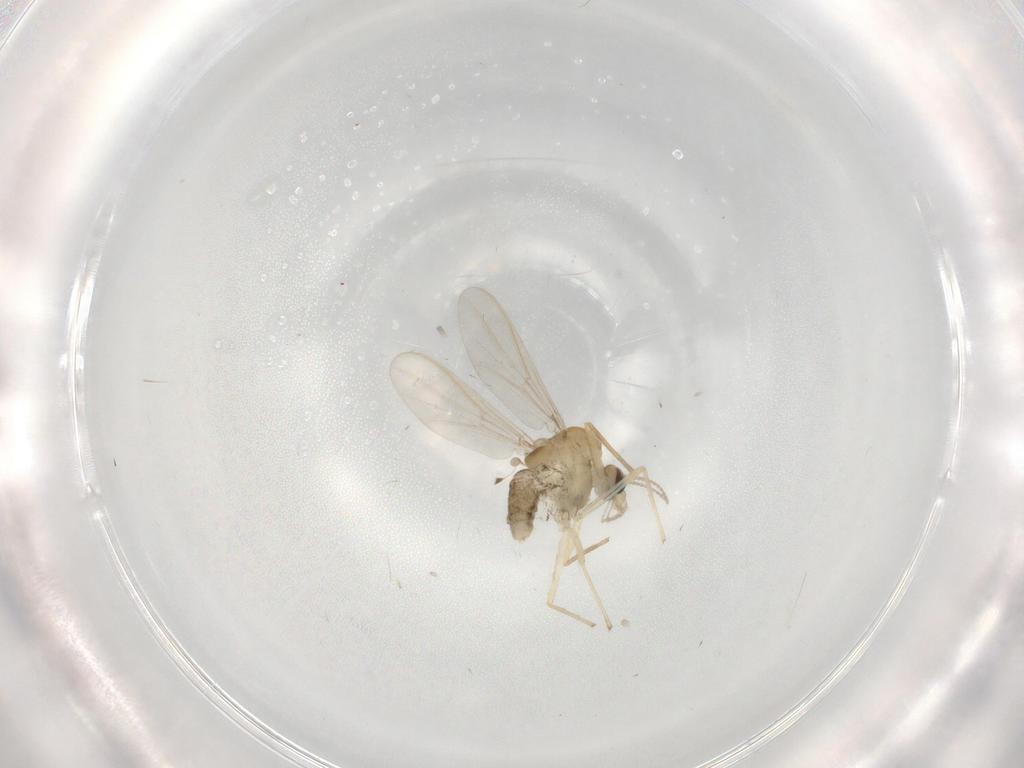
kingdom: Animalia
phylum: Arthropoda
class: Insecta
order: Diptera
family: Chironomidae
